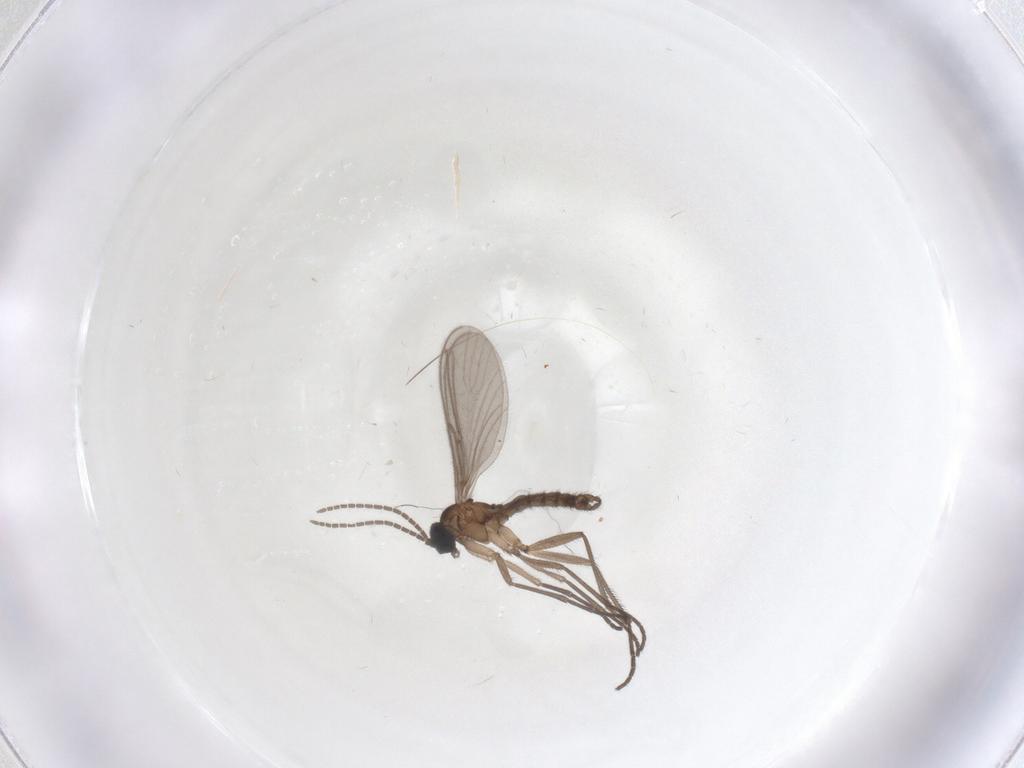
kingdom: Animalia
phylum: Arthropoda
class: Insecta
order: Diptera
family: Sciaridae
